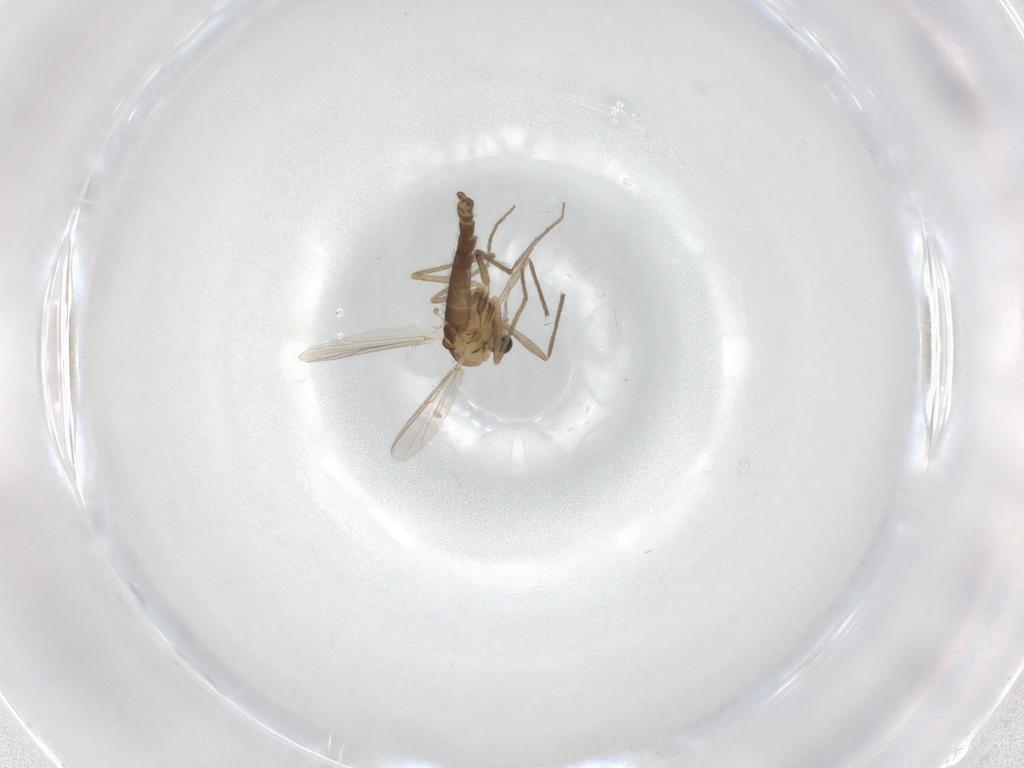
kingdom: Animalia
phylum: Arthropoda
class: Insecta
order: Diptera
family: Chironomidae
